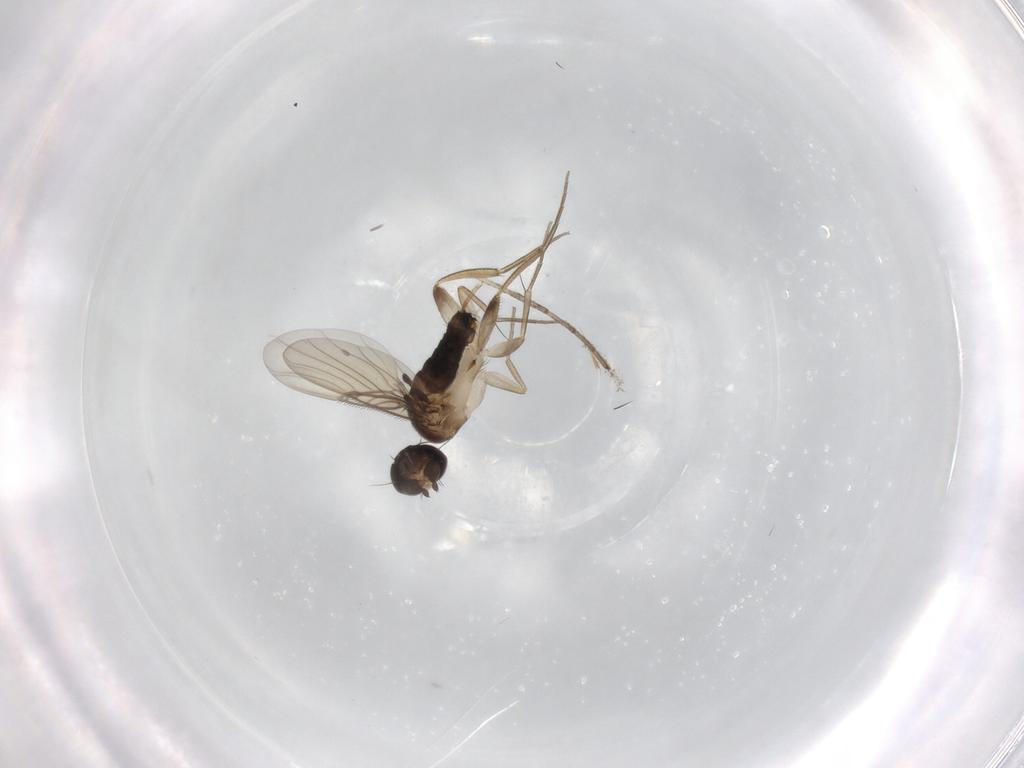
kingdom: Animalia
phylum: Arthropoda
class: Insecta
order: Diptera
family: Phoridae
